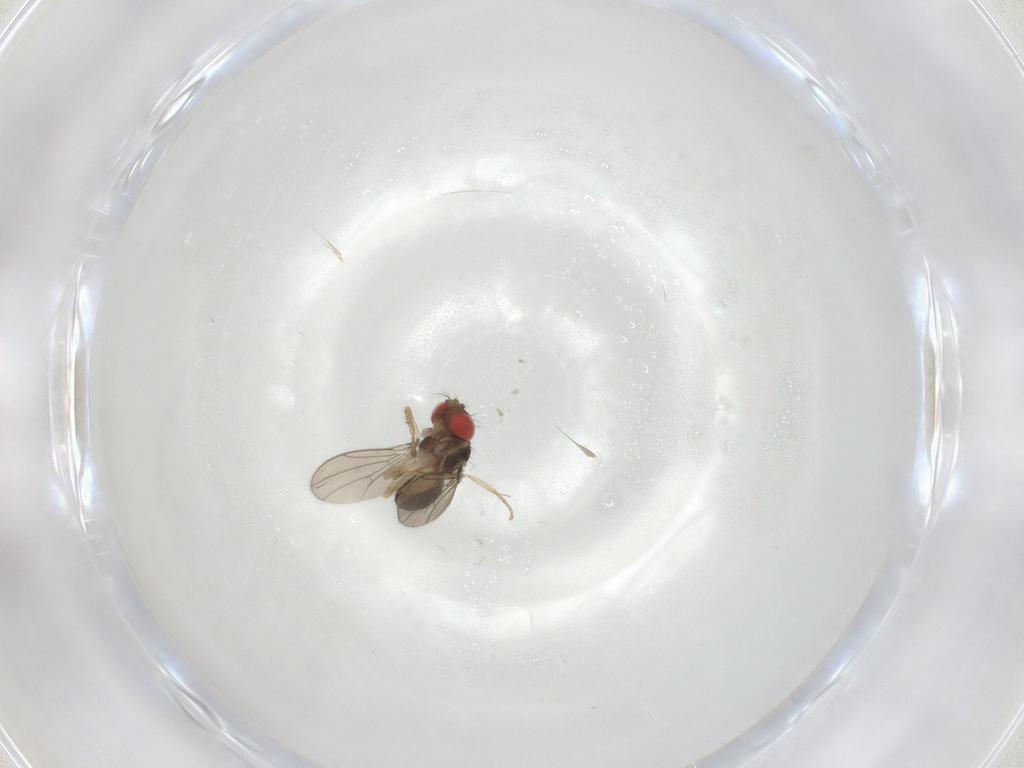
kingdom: Animalia
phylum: Arthropoda
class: Insecta
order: Diptera
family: Drosophilidae
